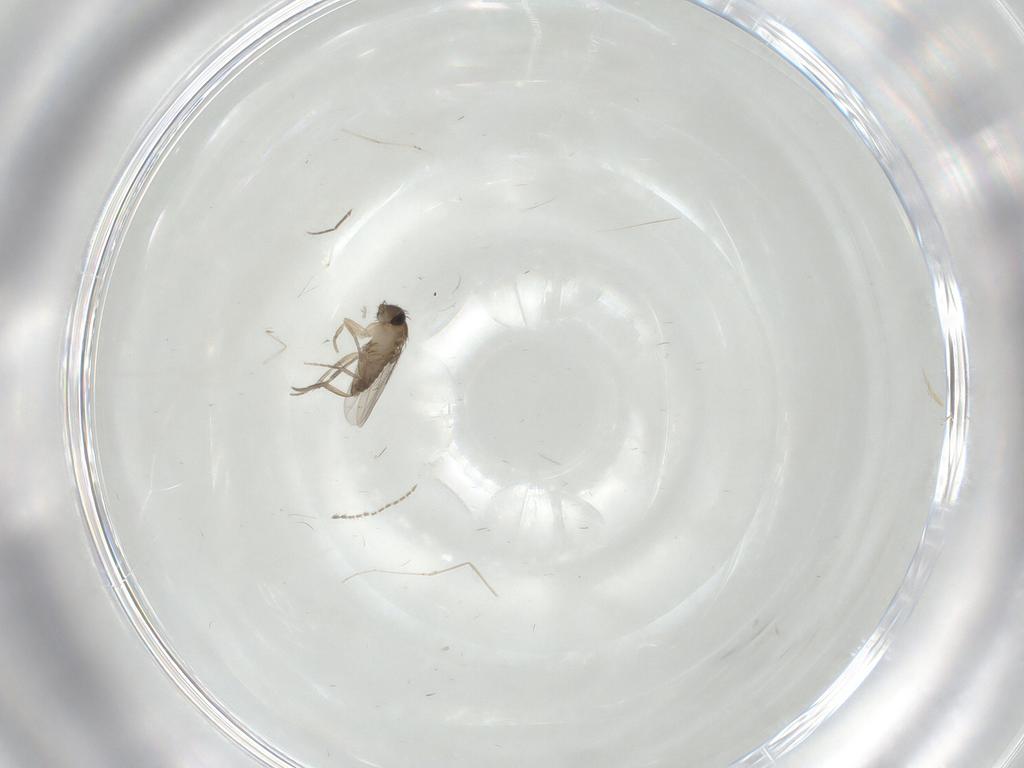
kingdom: Animalia
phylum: Arthropoda
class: Insecta
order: Diptera
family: Cecidomyiidae
